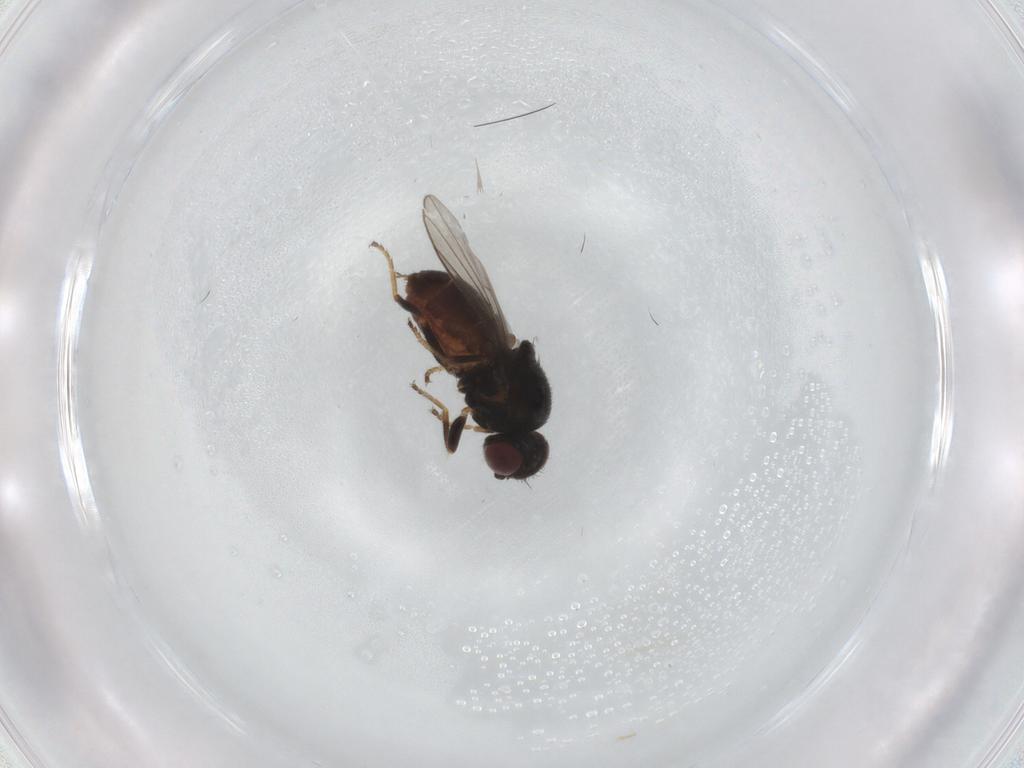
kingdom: Animalia
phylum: Arthropoda
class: Insecta
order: Diptera
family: Chloropidae
